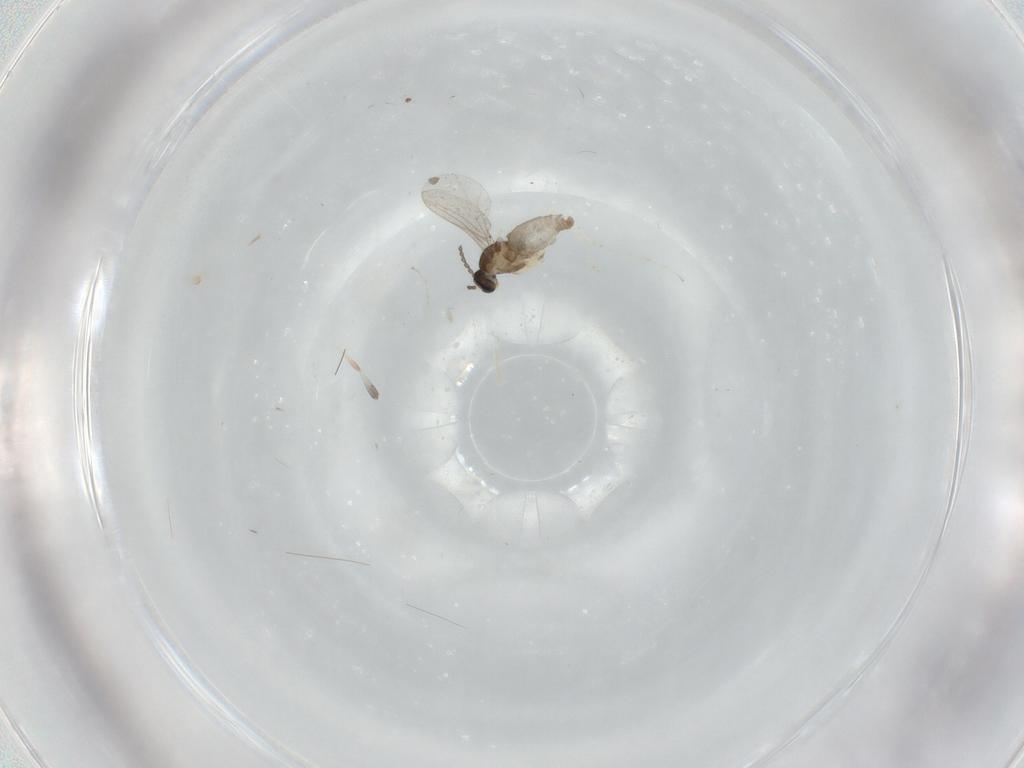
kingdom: Animalia
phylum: Arthropoda
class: Insecta
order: Diptera
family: Cecidomyiidae
